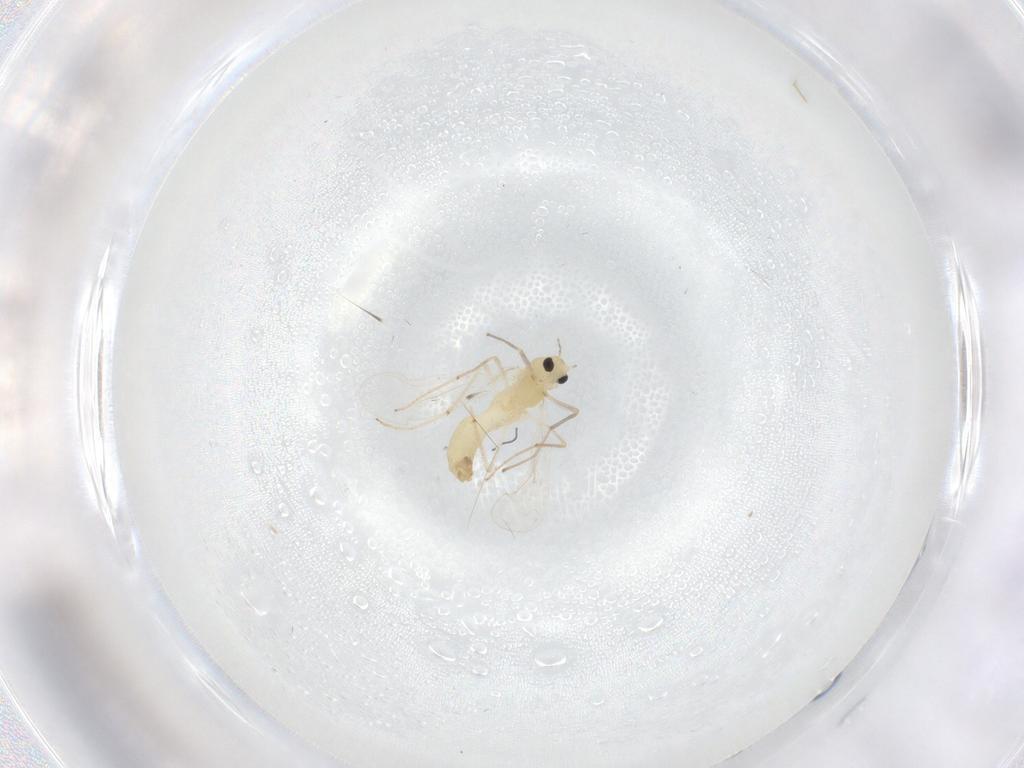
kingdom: Animalia
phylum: Arthropoda
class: Insecta
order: Diptera
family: Chironomidae
